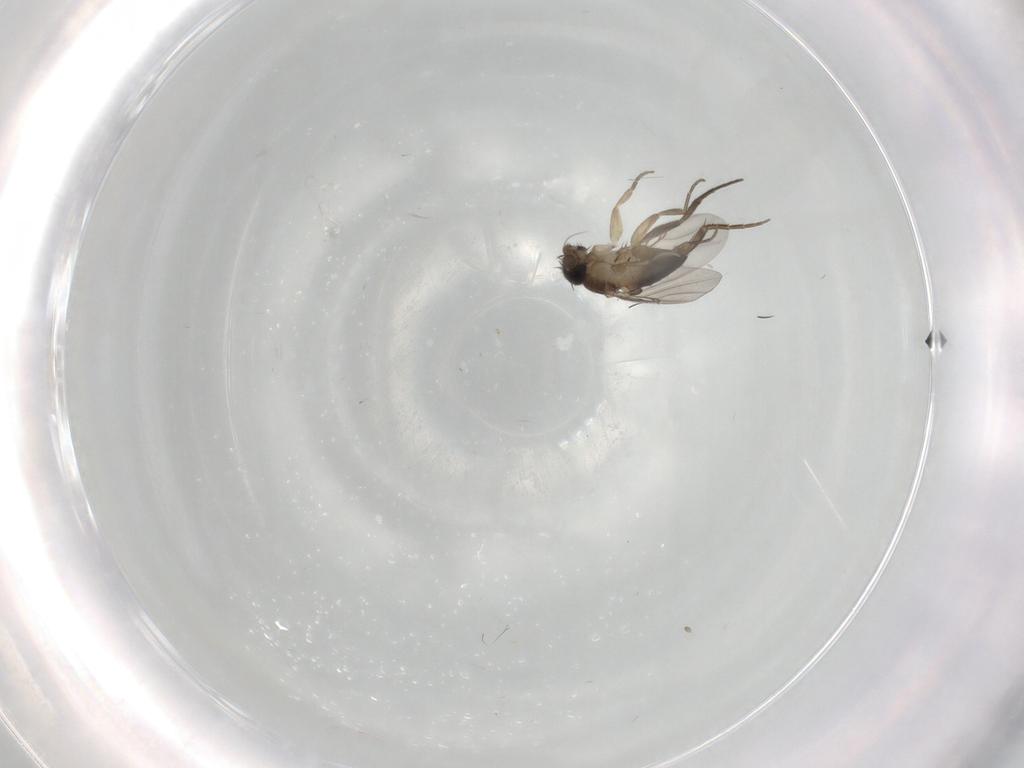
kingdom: Animalia
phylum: Arthropoda
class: Insecta
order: Diptera
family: Phoridae
